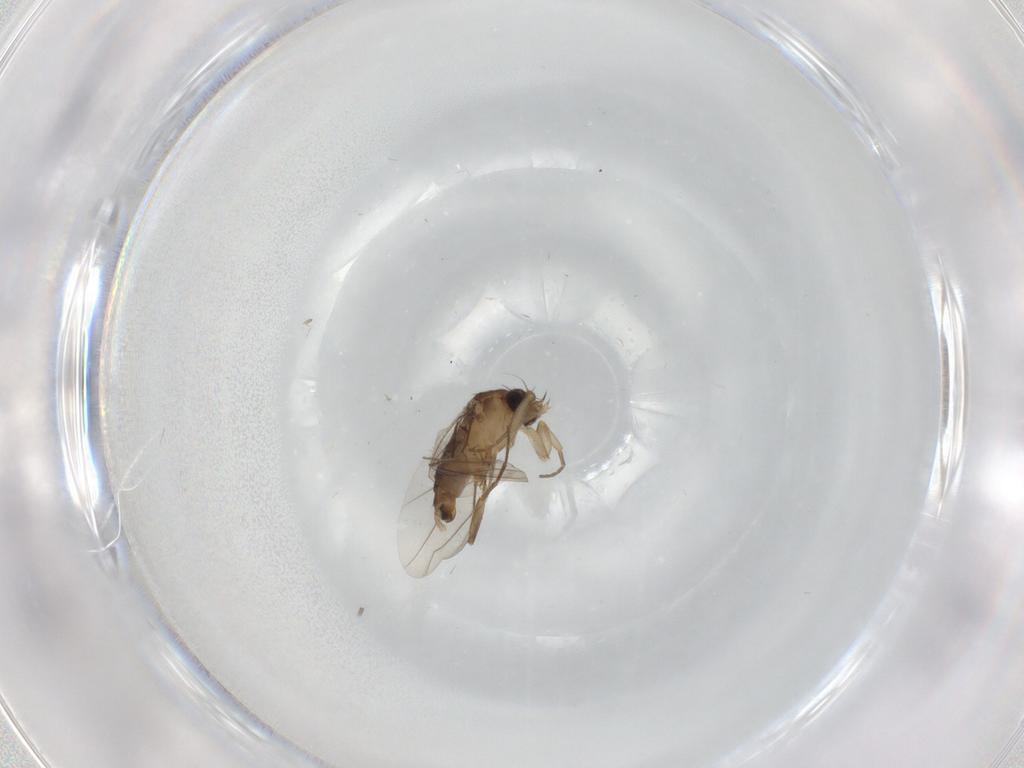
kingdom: Animalia
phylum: Arthropoda
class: Insecta
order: Diptera
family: Phoridae
